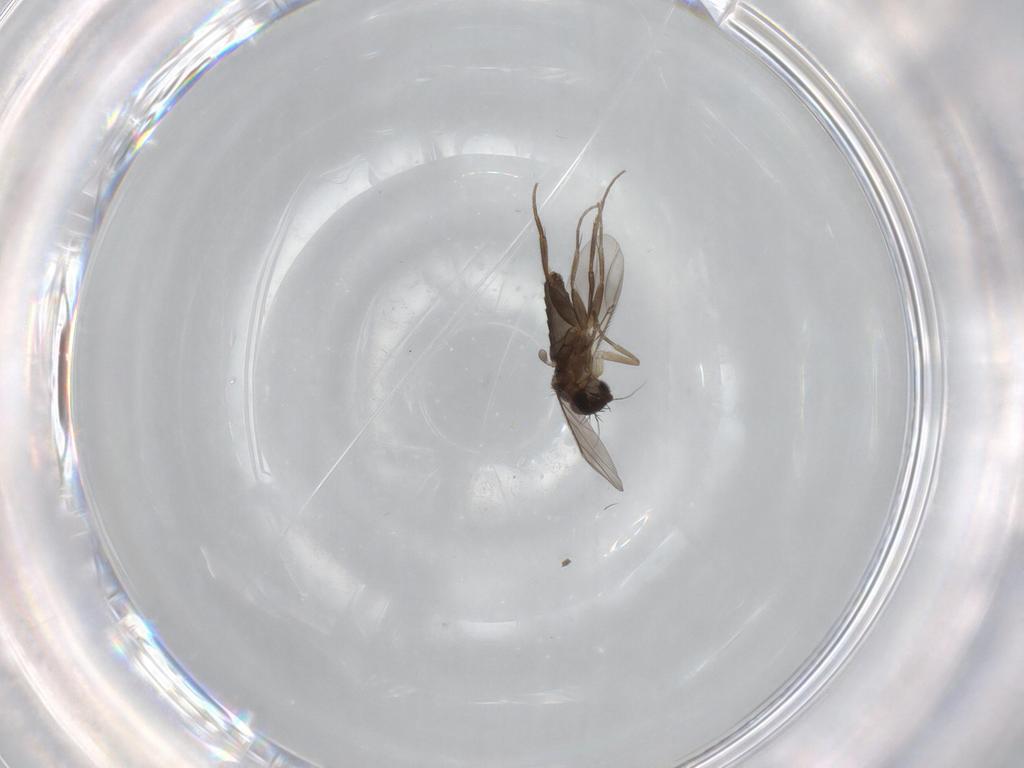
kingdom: Animalia
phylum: Arthropoda
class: Insecta
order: Diptera
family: Phoridae
